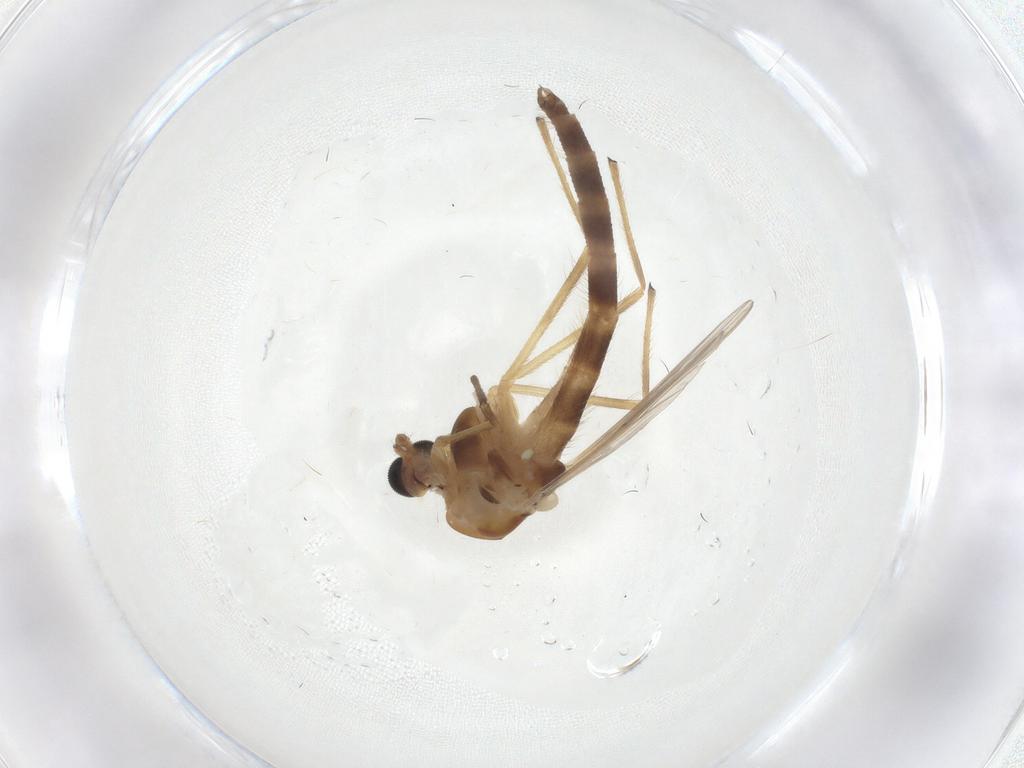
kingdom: Animalia
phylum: Arthropoda
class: Insecta
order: Diptera
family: Chironomidae
